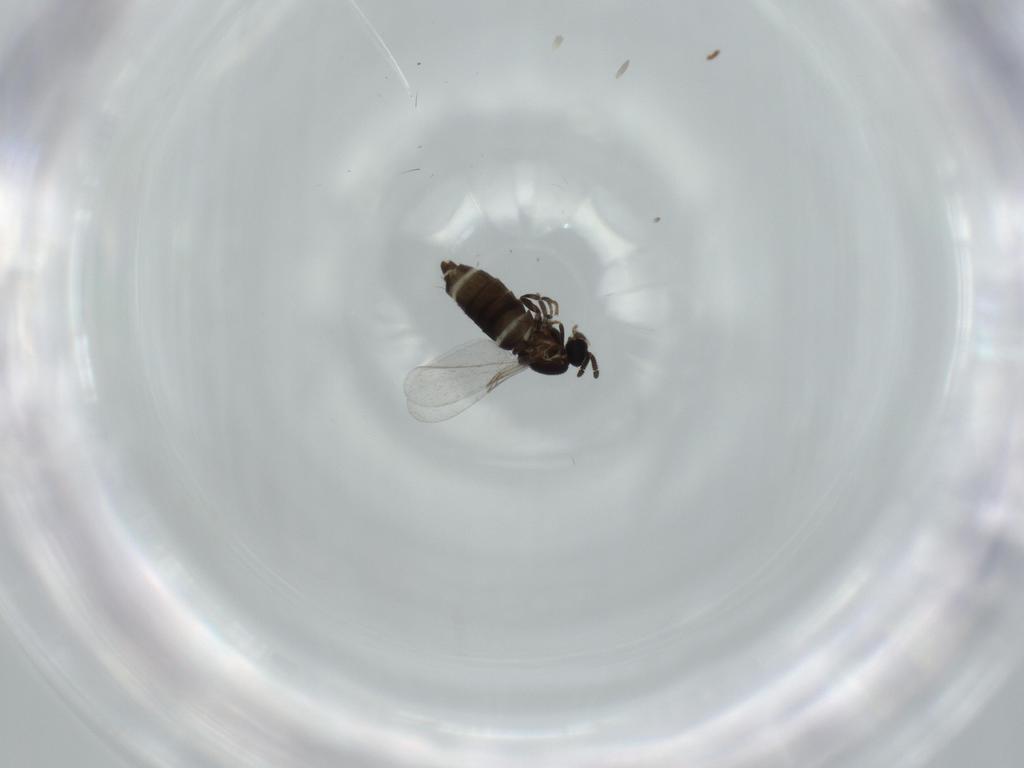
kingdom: Animalia
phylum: Arthropoda
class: Insecta
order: Diptera
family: Scatopsidae
